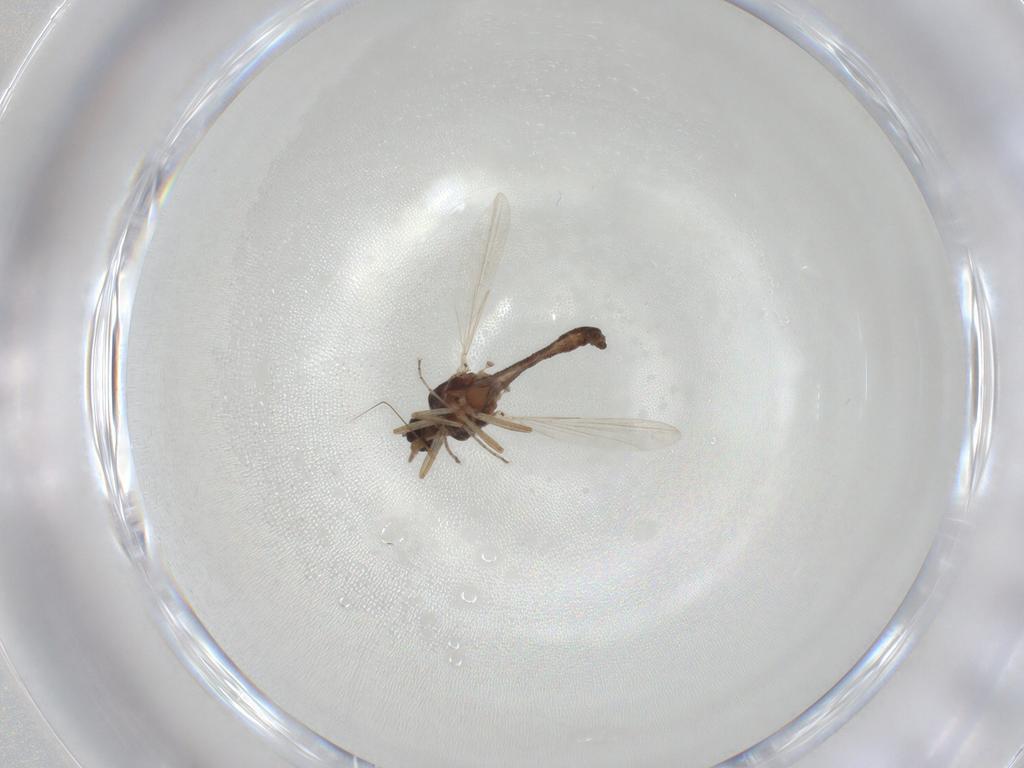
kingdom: Animalia
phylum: Arthropoda
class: Insecta
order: Diptera
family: Ceratopogonidae
